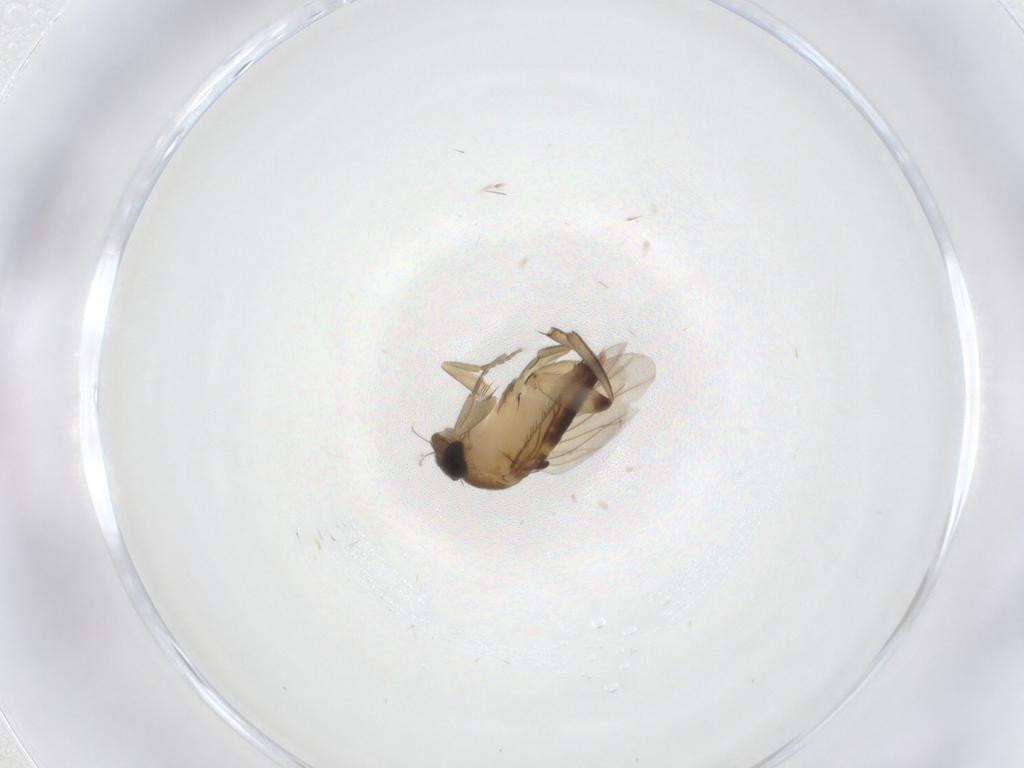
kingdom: Animalia
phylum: Arthropoda
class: Insecta
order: Diptera
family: Phoridae
